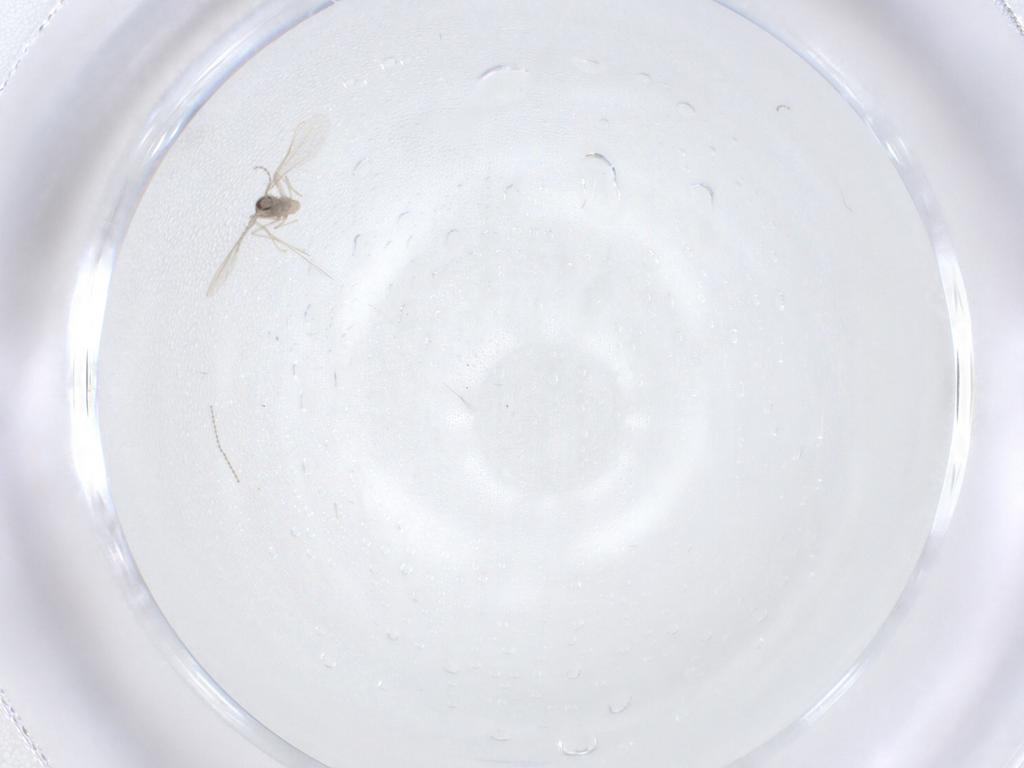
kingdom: Animalia
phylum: Arthropoda
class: Insecta
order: Diptera
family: Cecidomyiidae
